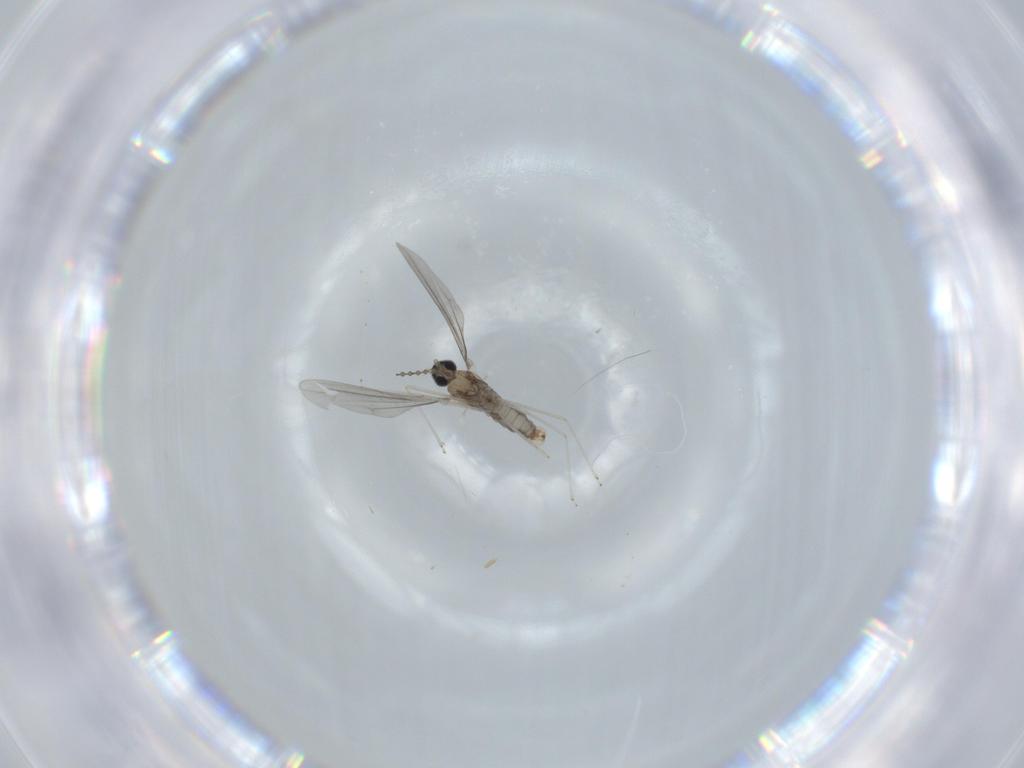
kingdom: Animalia
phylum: Arthropoda
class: Insecta
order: Diptera
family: Cecidomyiidae
